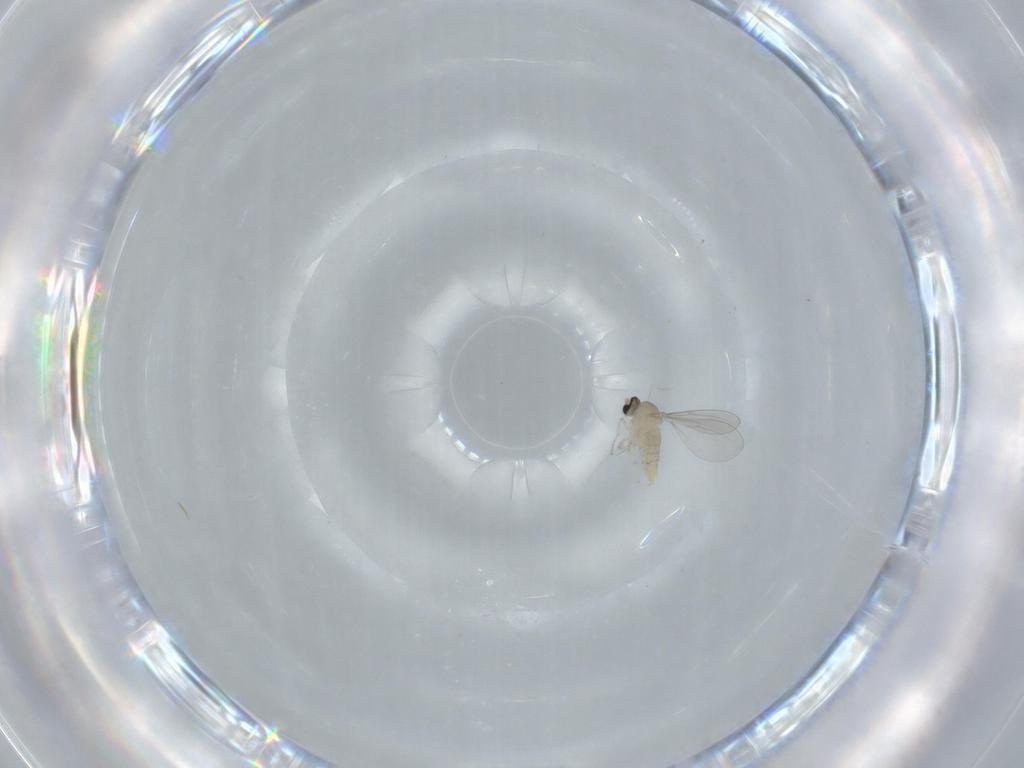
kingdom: Animalia
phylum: Arthropoda
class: Insecta
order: Diptera
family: Cecidomyiidae
